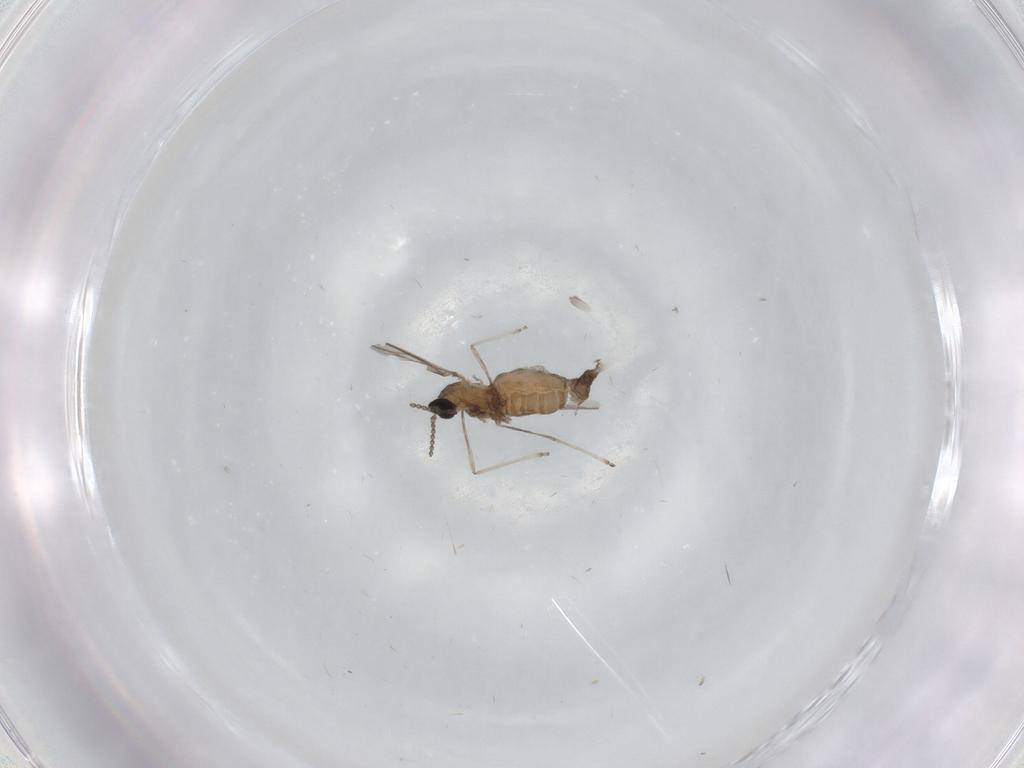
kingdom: Animalia
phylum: Arthropoda
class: Insecta
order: Diptera
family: Cecidomyiidae
